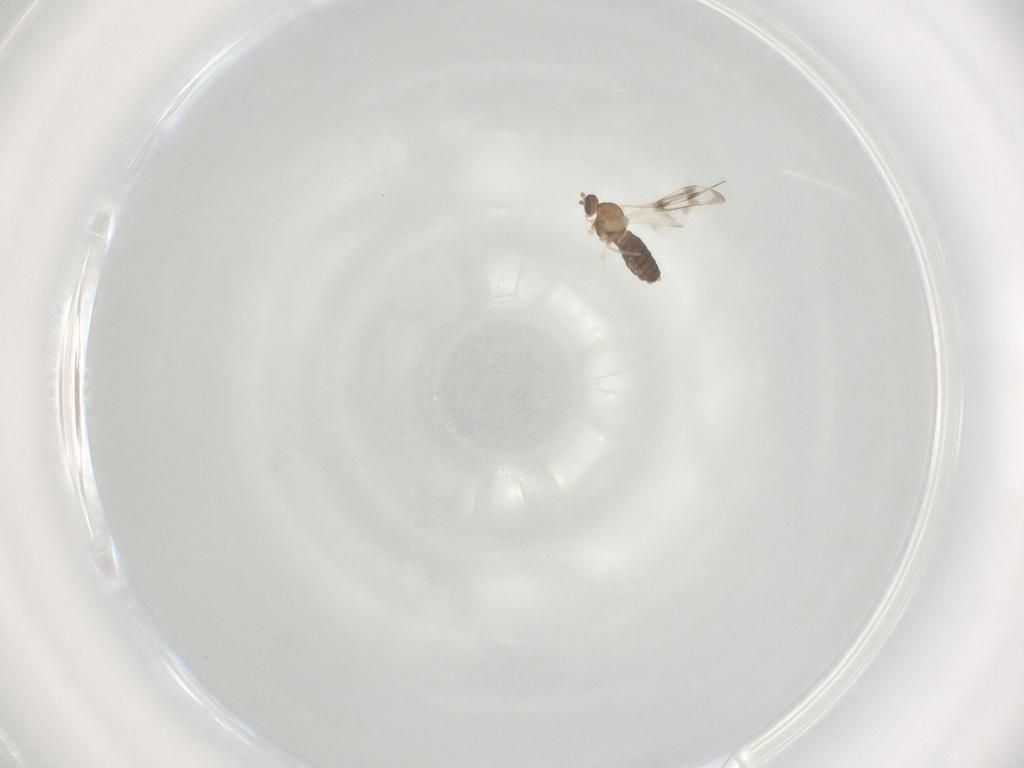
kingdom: Animalia
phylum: Arthropoda
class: Insecta
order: Diptera
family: Cecidomyiidae
